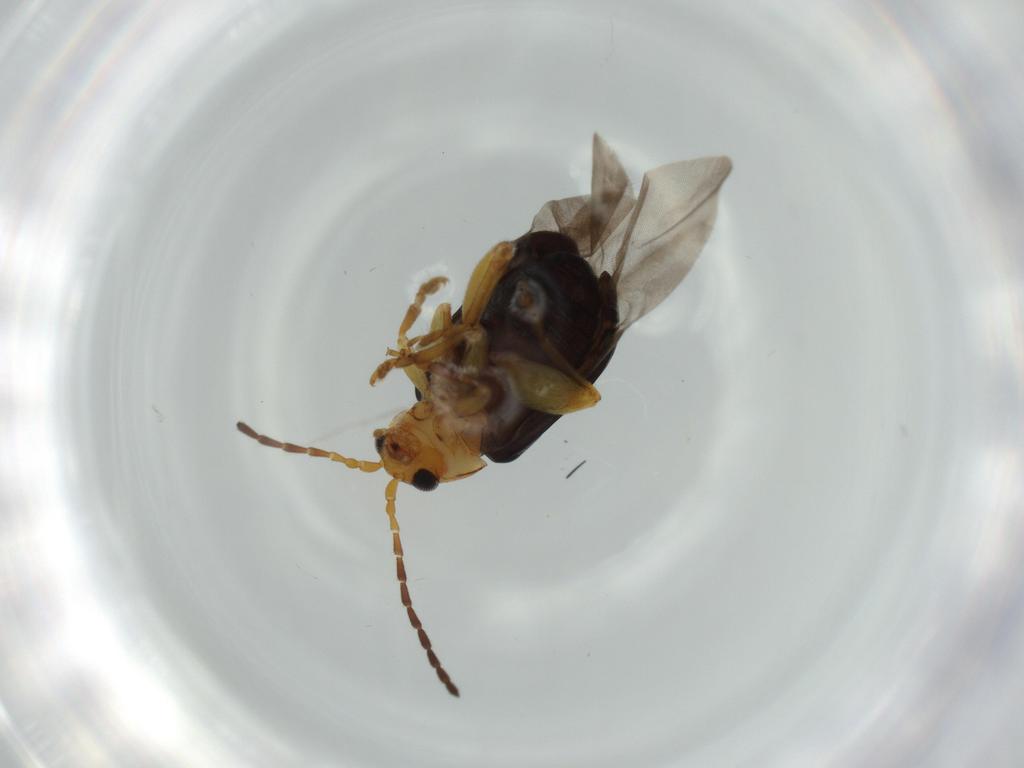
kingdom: Animalia
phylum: Arthropoda
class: Insecta
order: Coleoptera
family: Chrysomelidae
